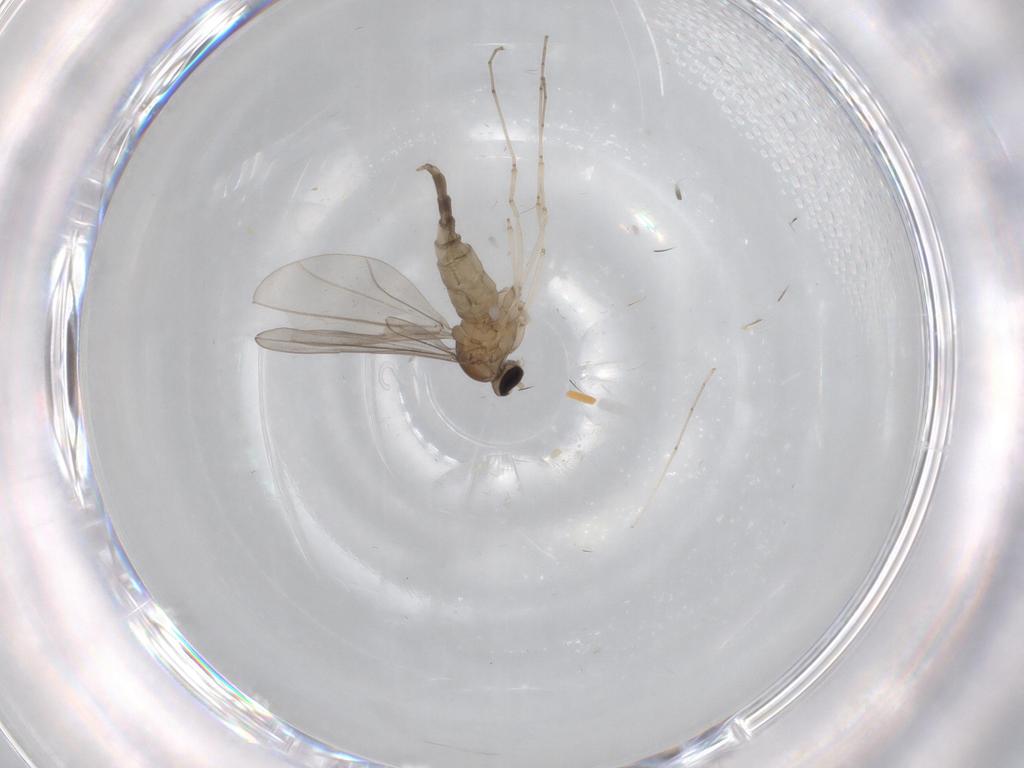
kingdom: Animalia
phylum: Arthropoda
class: Insecta
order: Diptera
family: Cecidomyiidae
